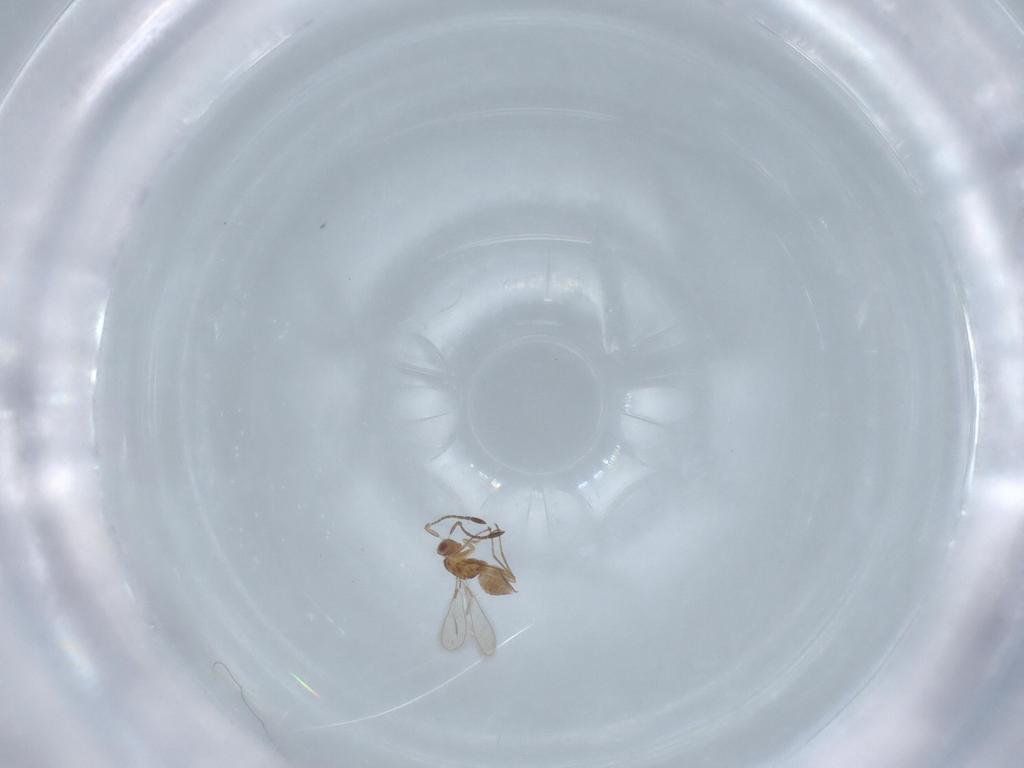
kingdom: Animalia
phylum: Arthropoda
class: Insecta
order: Hymenoptera
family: Mymaridae
